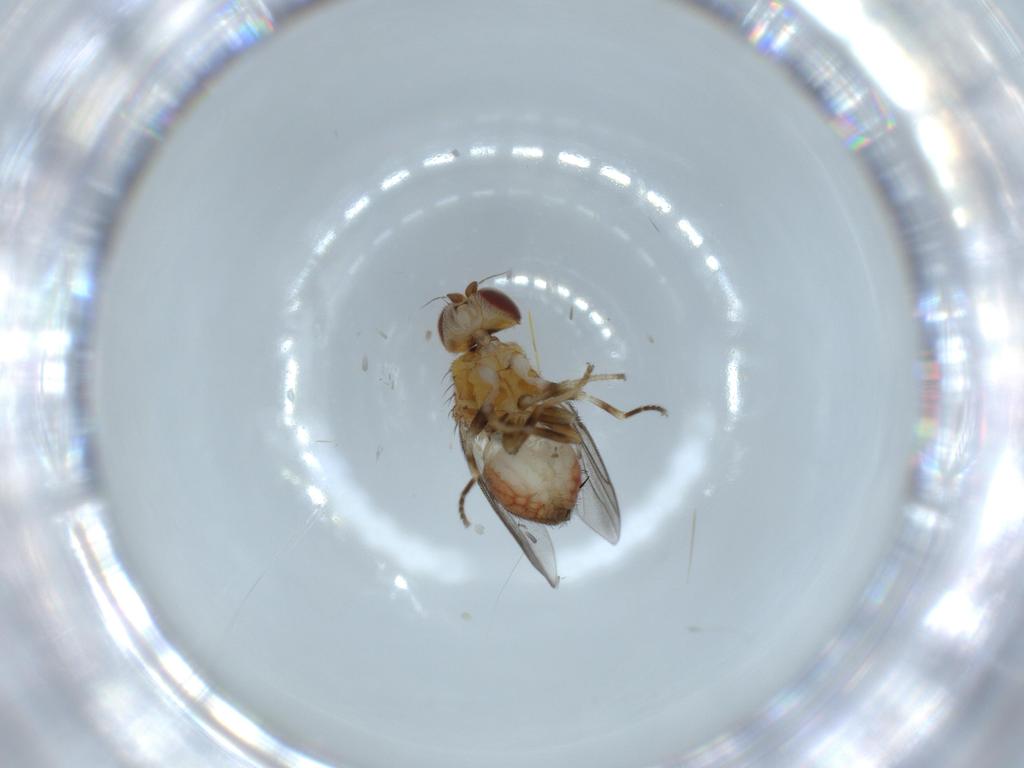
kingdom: Animalia
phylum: Arthropoda
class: Insecta
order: Diptera
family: Chloropidae
